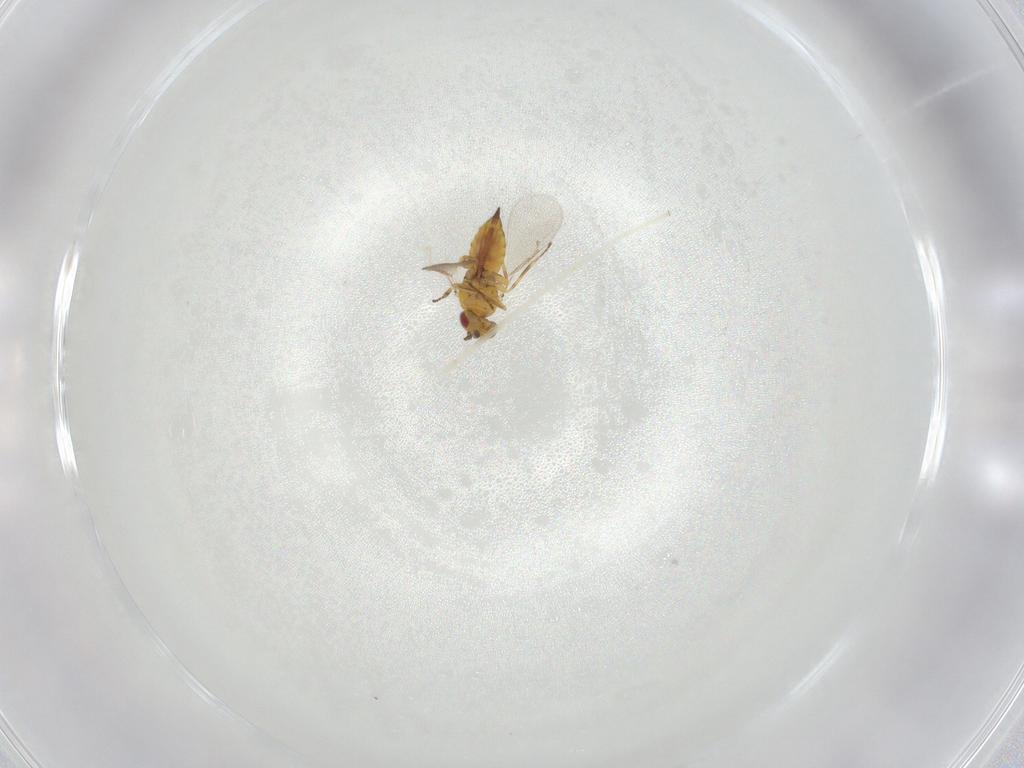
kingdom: Animalia
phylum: Arthropoda
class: Insecta
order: Hymenoptera
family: Eulophidae
